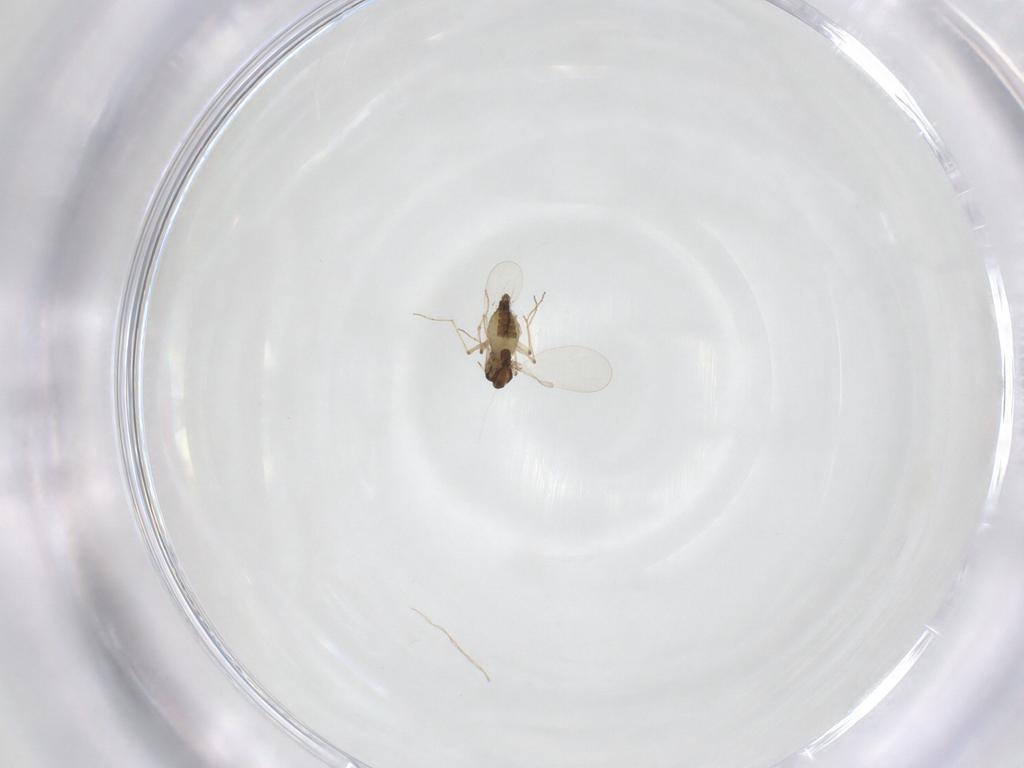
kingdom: Animalia
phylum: Arthropoda
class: Insecta
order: Diptera
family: Chironomidae
